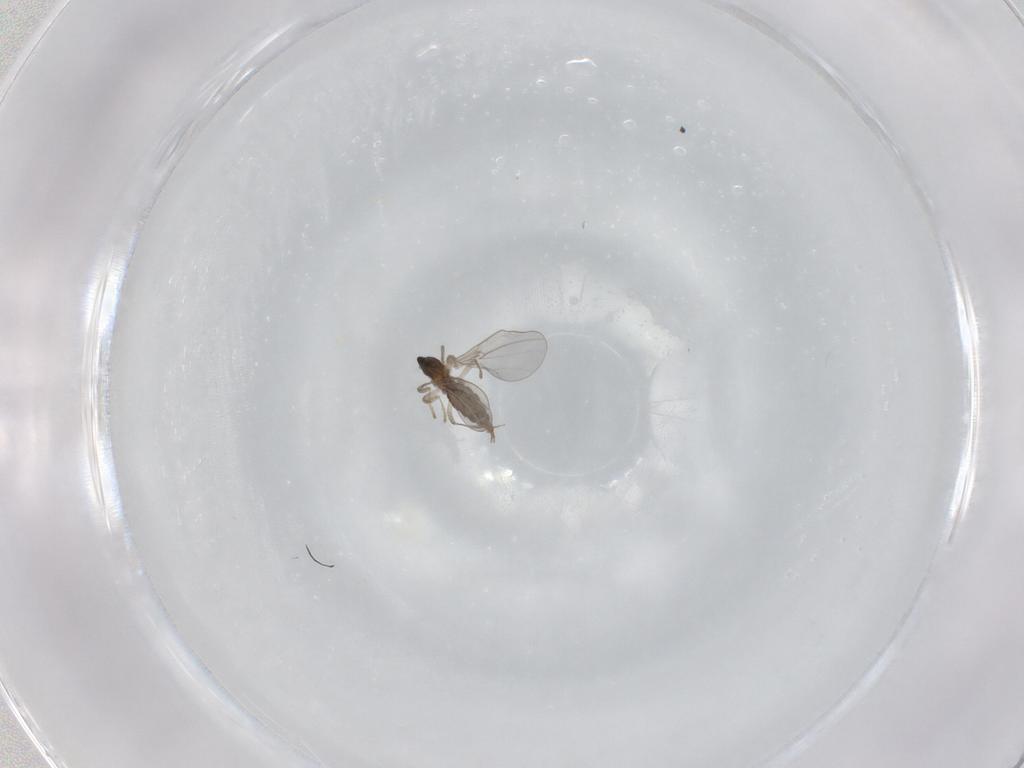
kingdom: Animalia
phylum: Arthropoda
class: Insecta
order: Diptera
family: Cecidomyiidae
